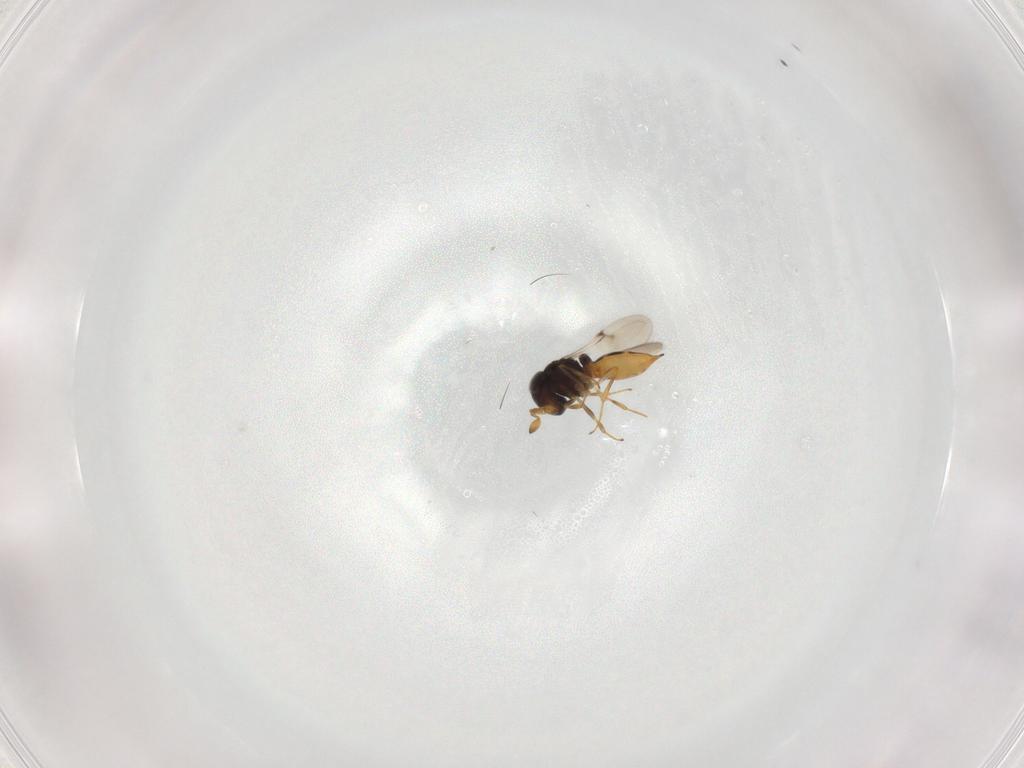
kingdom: Animalia
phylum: Arthropoda
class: Insecta
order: Hymenoptera
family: Scelionidae
